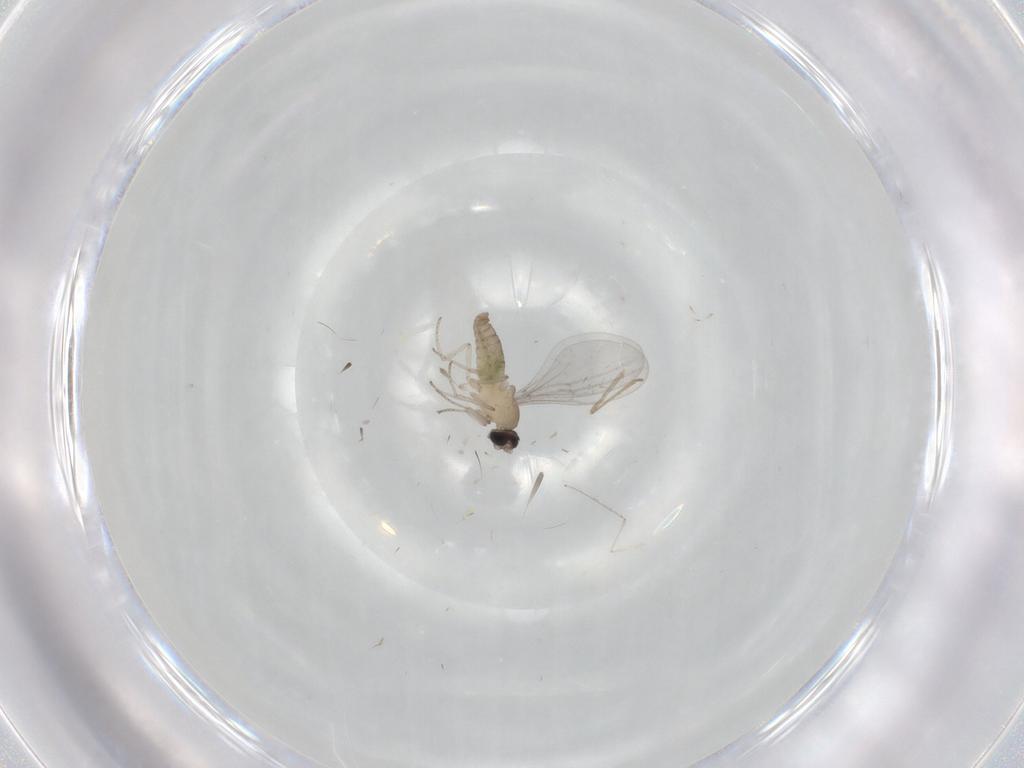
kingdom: Animalia
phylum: Arthropoda
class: Insecta
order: Diptera
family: Cecidomyiidae
